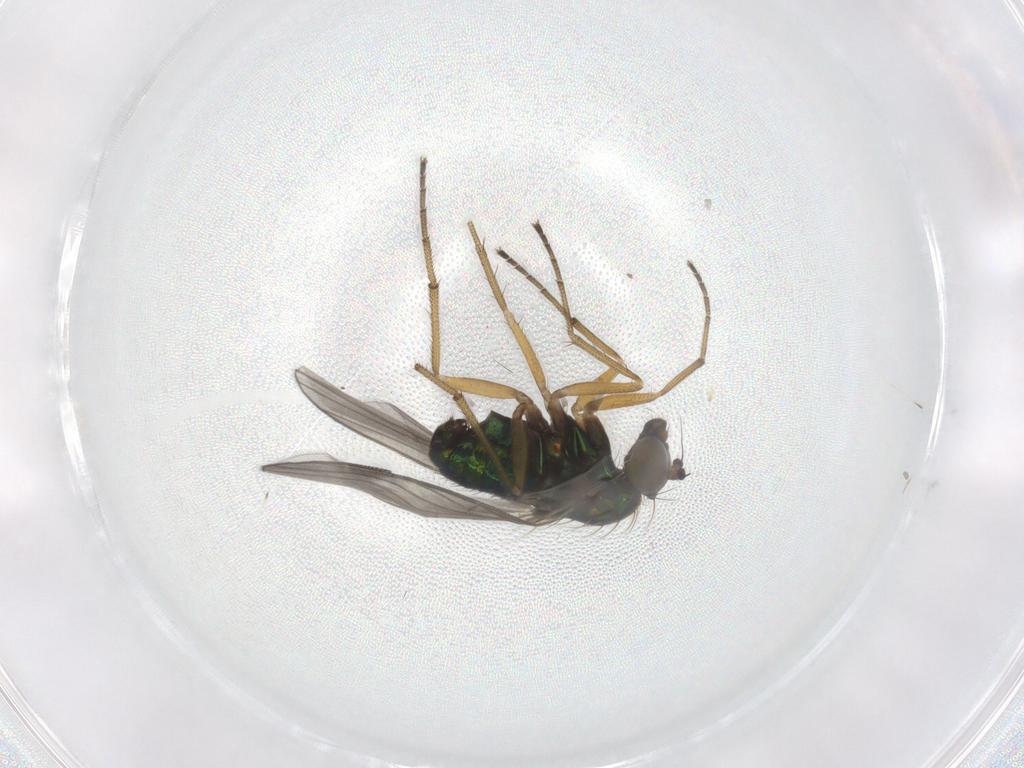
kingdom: Animalia
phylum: Arthropoda
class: Insecta
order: Diptera
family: Dolichopodidae
